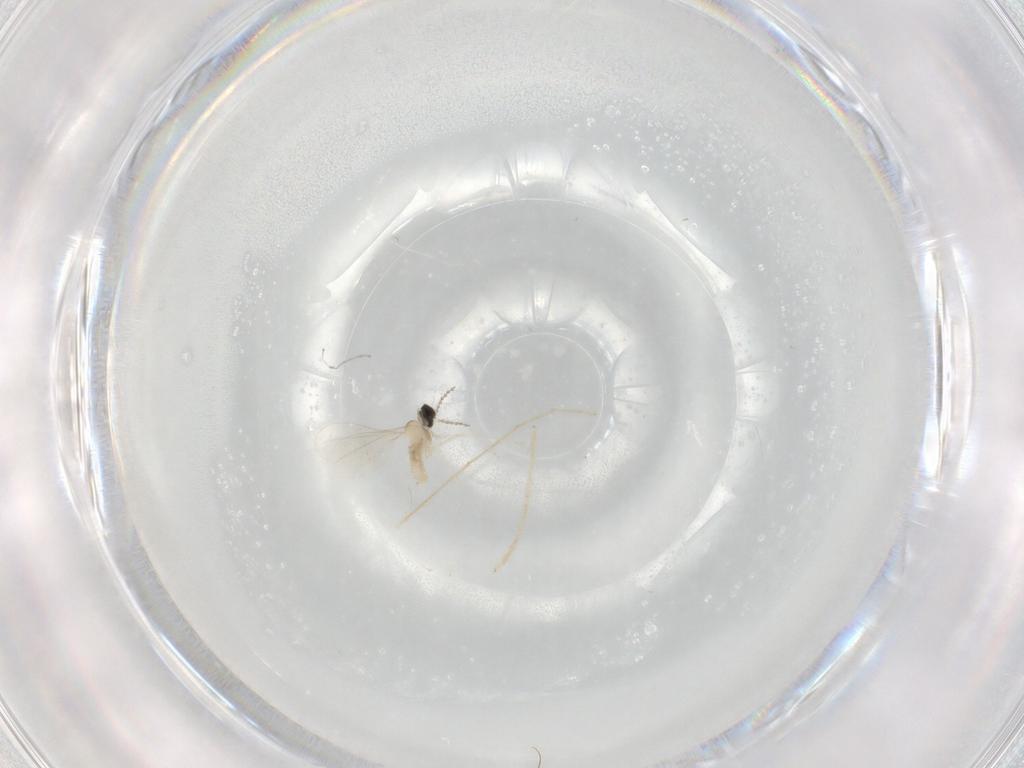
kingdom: Animalia
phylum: Arthropoda
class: Insecta
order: Diptera
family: Chironomidae
